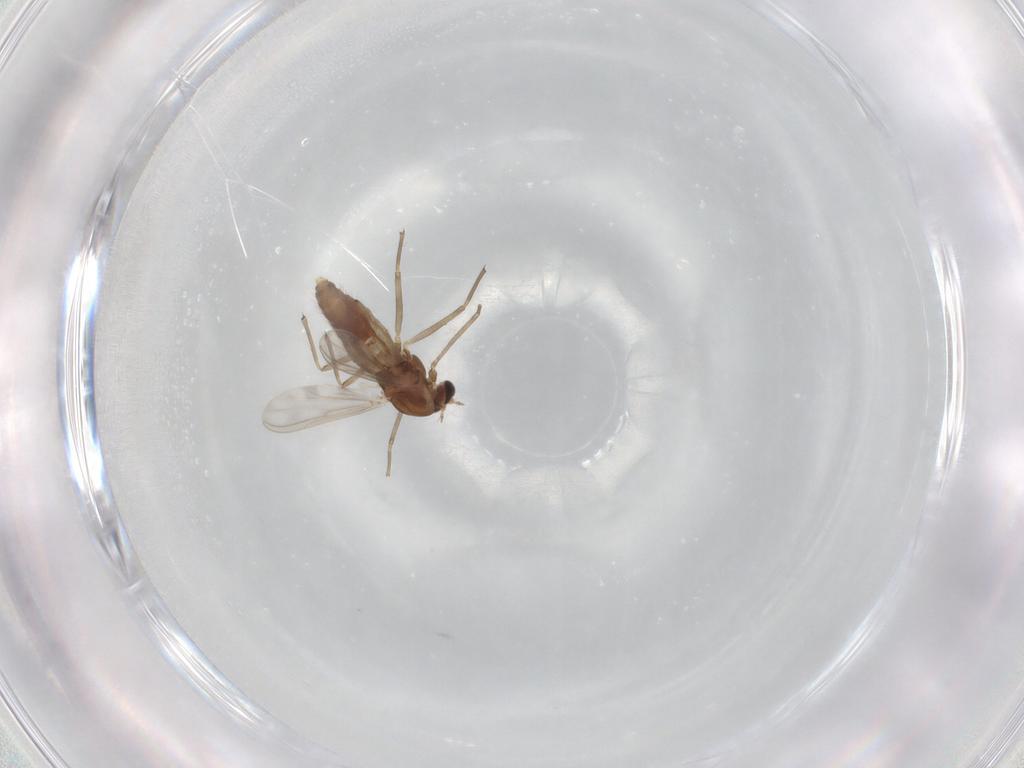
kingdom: Animalia
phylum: Arthropoda
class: Insecta
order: Diptera
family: Chironomidae
